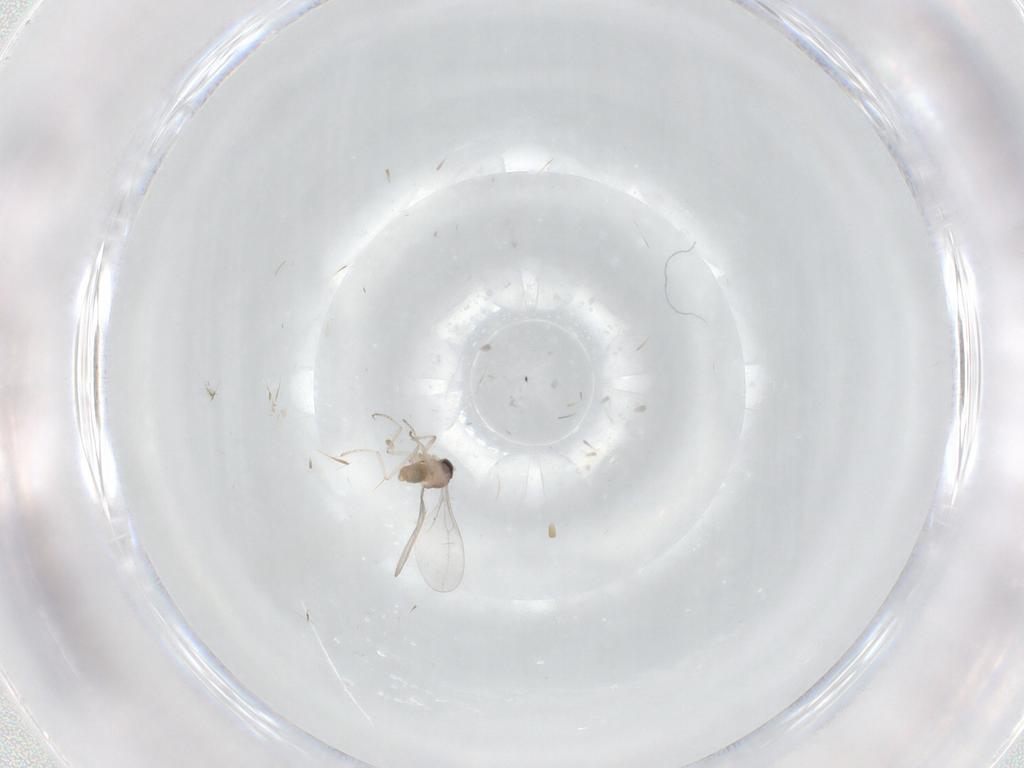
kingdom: Animalia
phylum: Arthropoda
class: Insecta
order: Diptera
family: Cecidomyiidae
